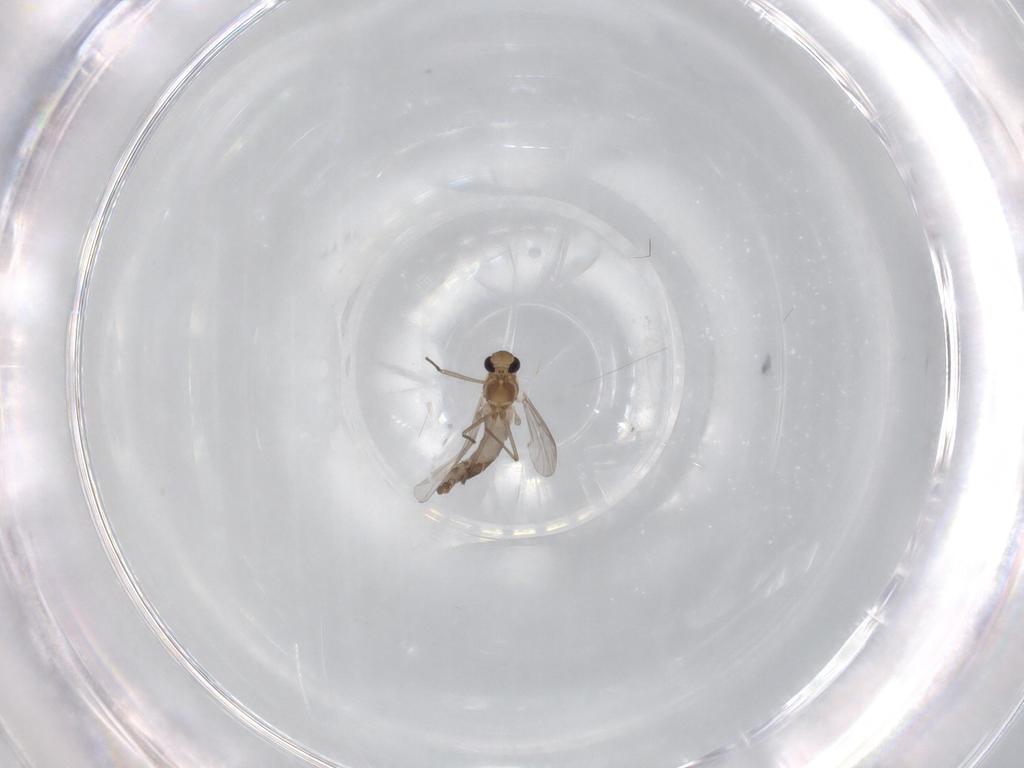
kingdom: Animalia
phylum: Arthropoda
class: Insecta
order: Diptera
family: Chironomidae
